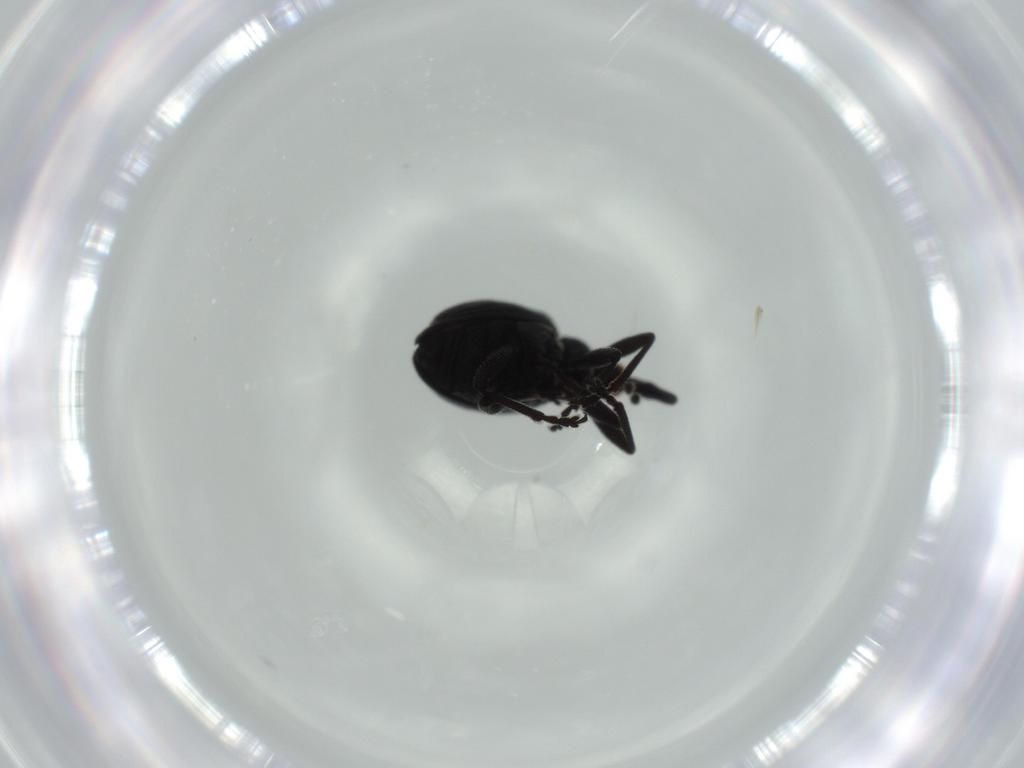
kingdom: Animalia
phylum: Arthropoda
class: Insecta
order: Coleoptera
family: Brentidae
